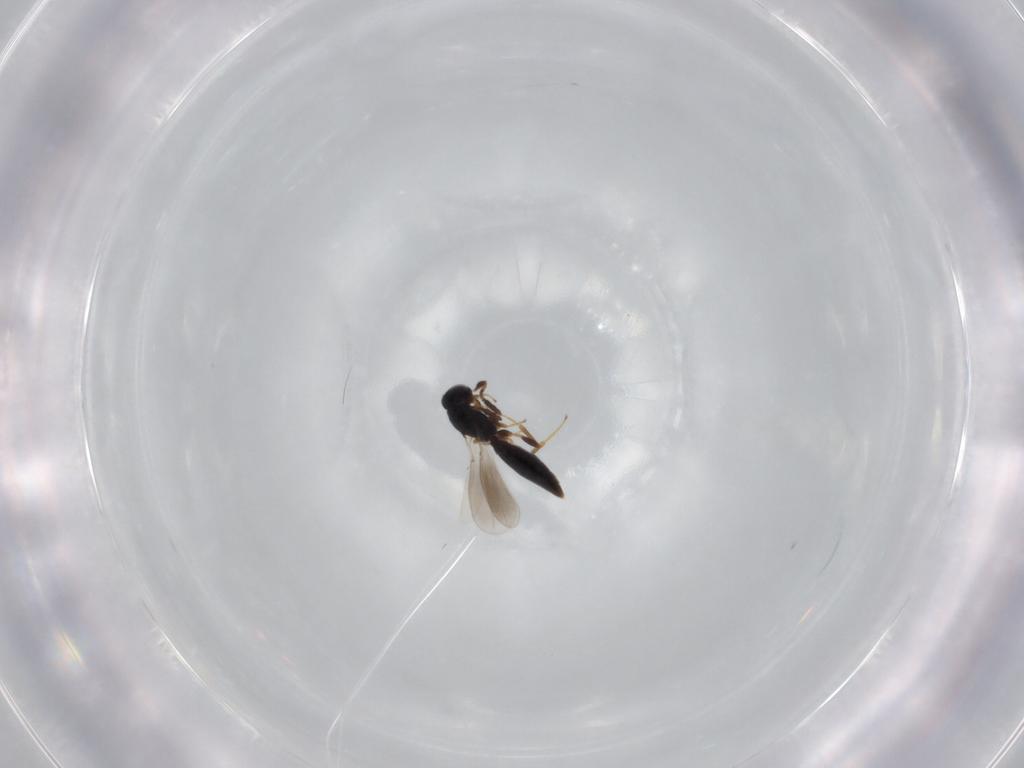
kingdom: Animalia
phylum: Arthropoda
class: Insecta
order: Hymenoptera
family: Platygastridae
